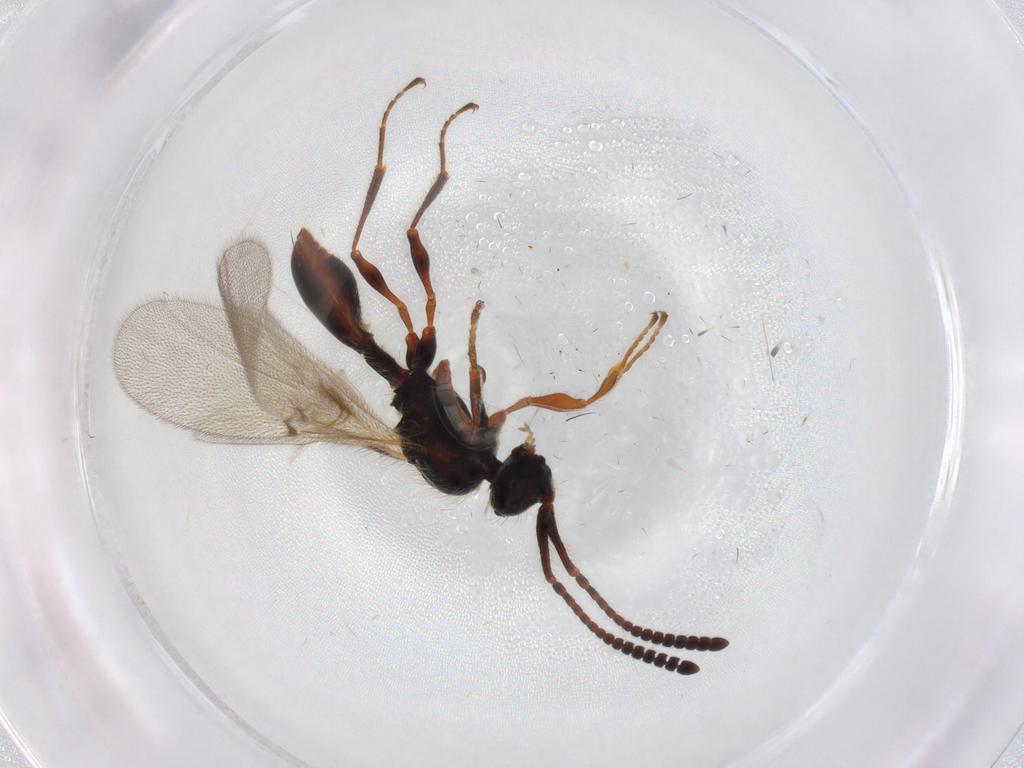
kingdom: Animalia
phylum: Arthropoda
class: Insecta
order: Hymenoptera
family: Diapriidae
